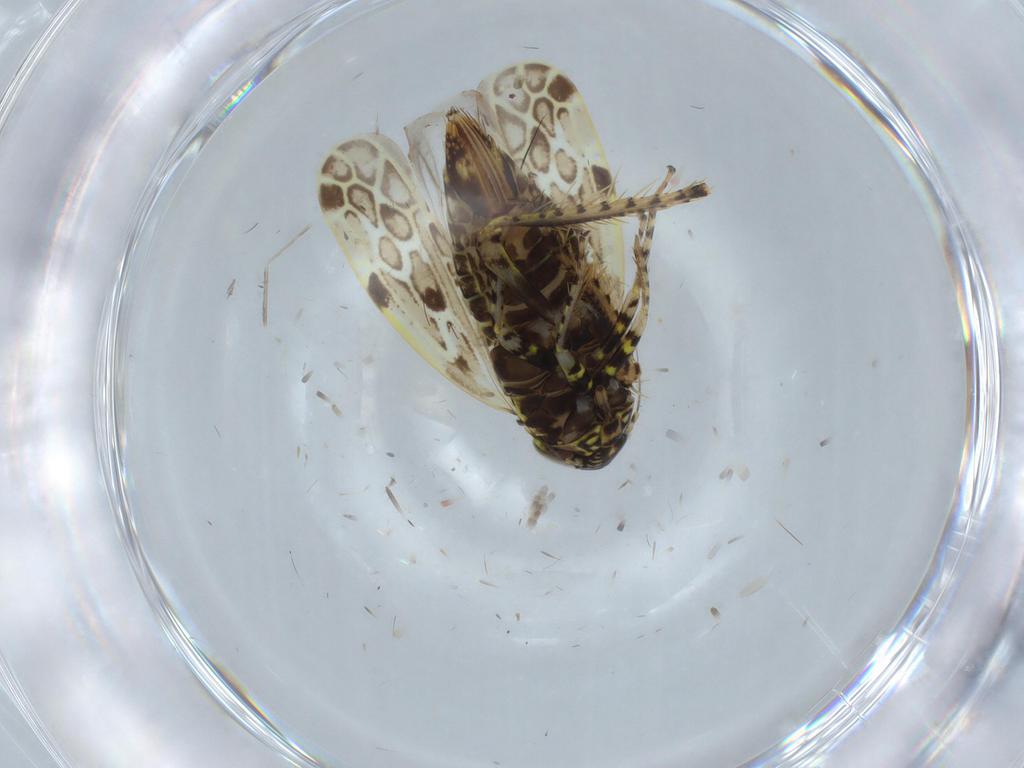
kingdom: Animalia
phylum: Arthropoda
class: Insecta
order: Hemiptera
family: Cicadellidae
